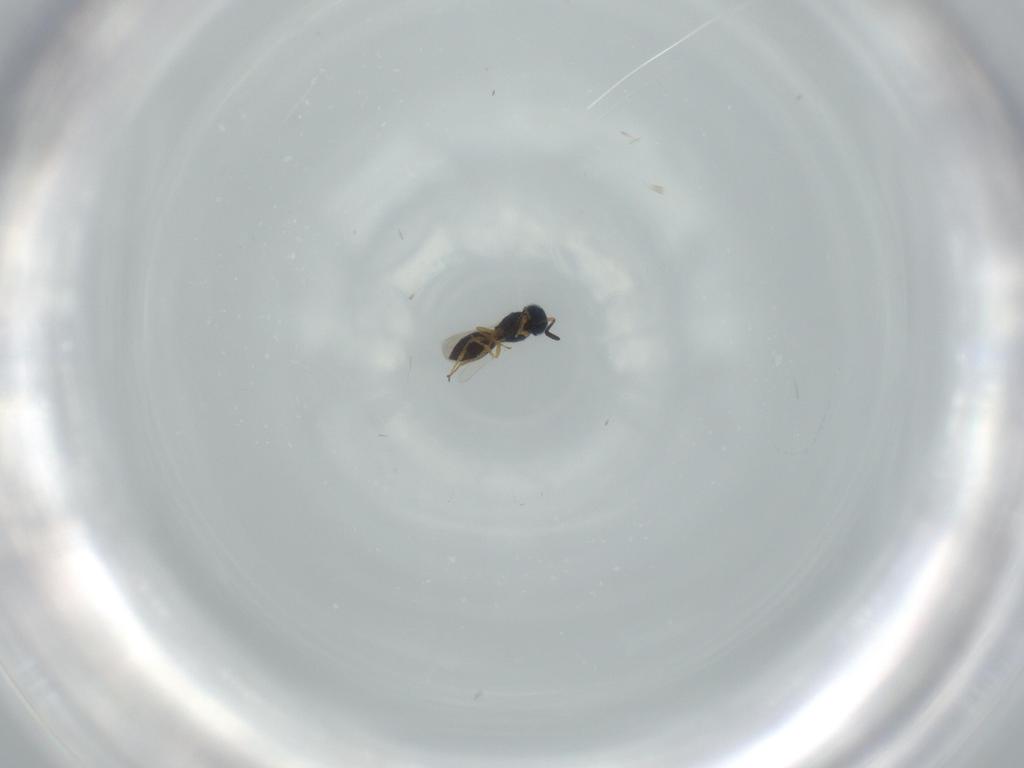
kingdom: Animalia
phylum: Arthropoda
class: Insecta
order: Hymenoptera
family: Scelionidae
